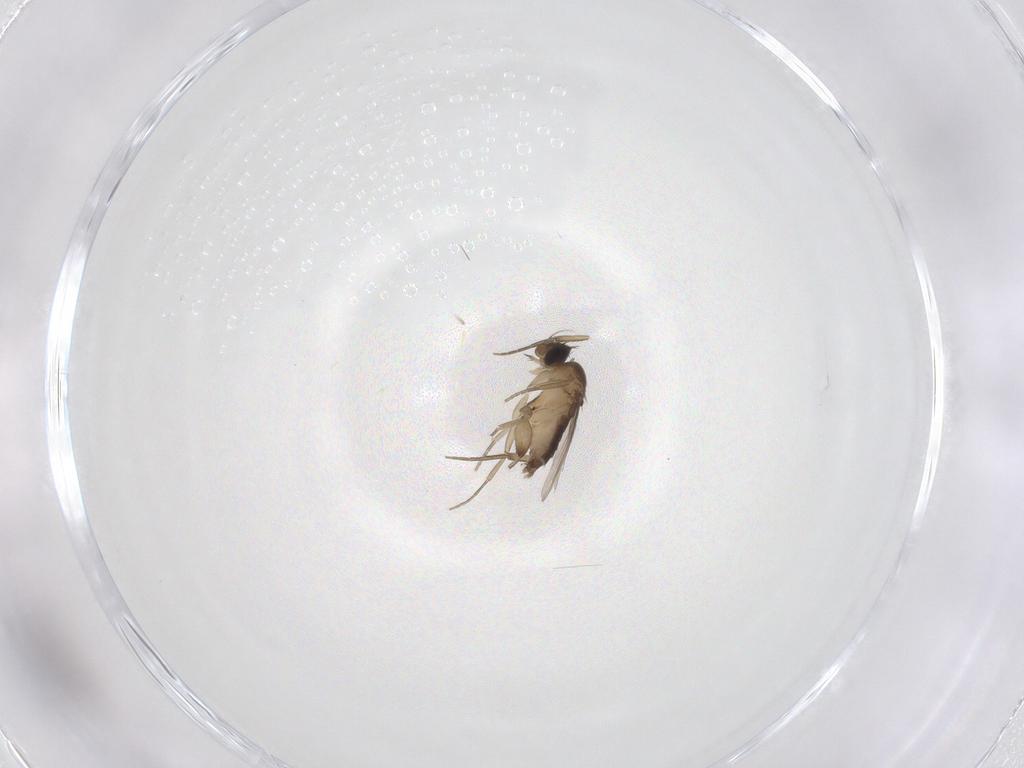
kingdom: Animalia
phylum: Arthropoda
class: Insecta
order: Diptera
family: Phoridae
